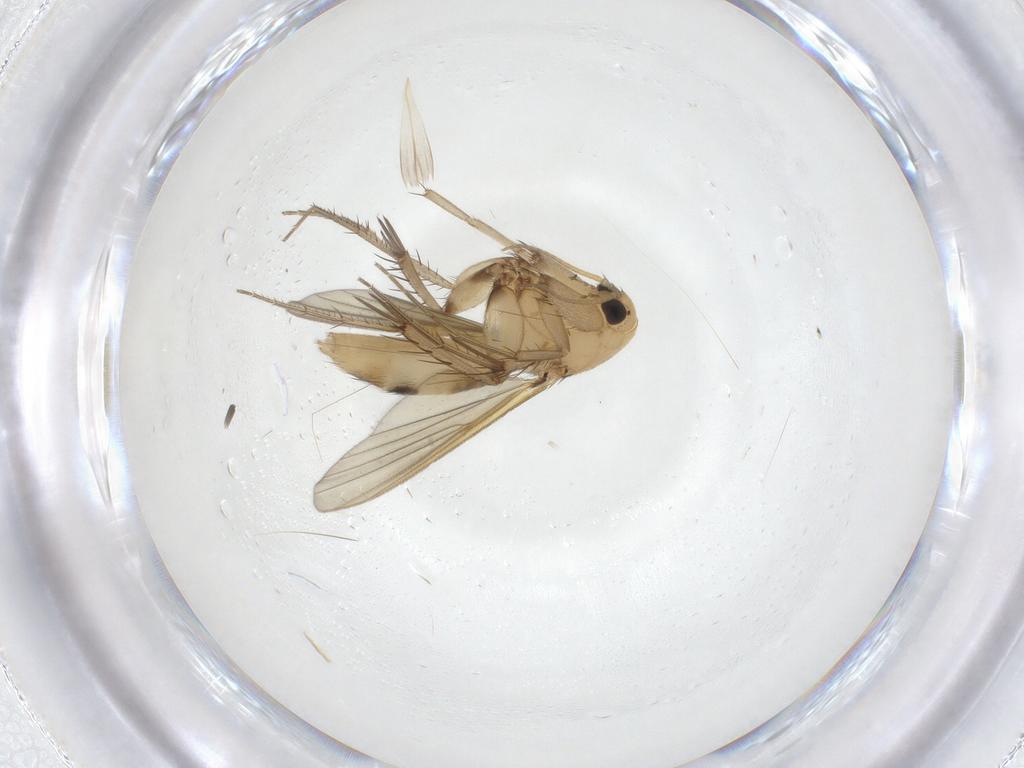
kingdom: Animalia
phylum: Arthropoda
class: Insecta
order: Diptera
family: Mycetophilidae
